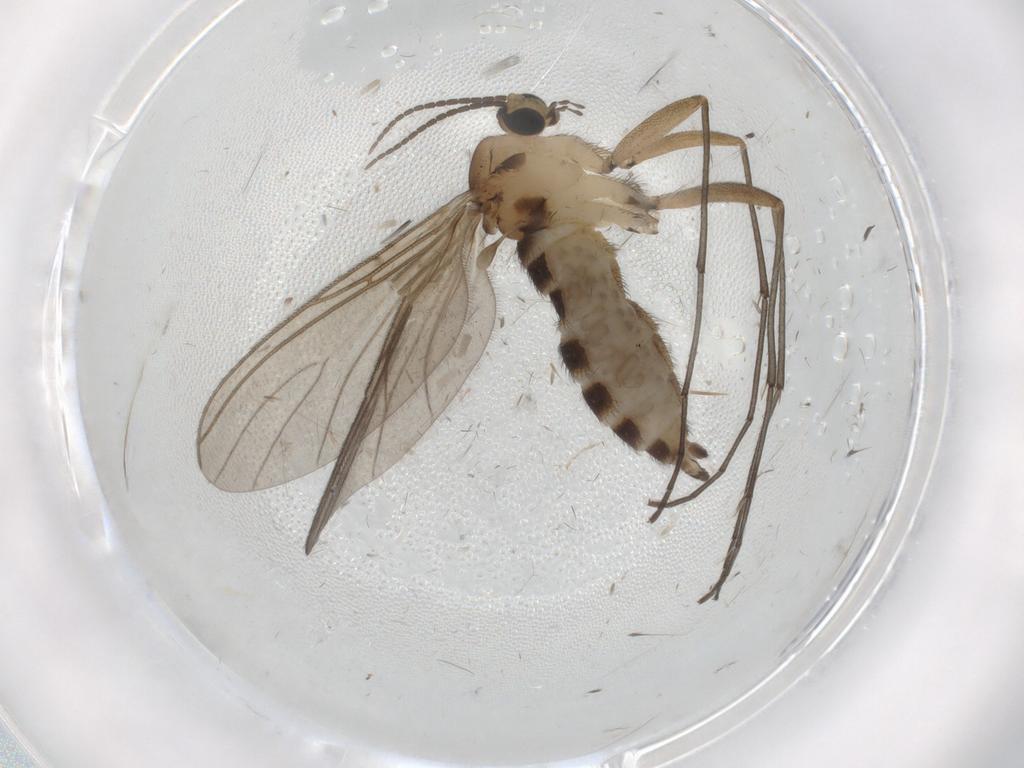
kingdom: Animalia
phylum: Arthropoda
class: Insecta
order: Diptera
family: Sciaridae
